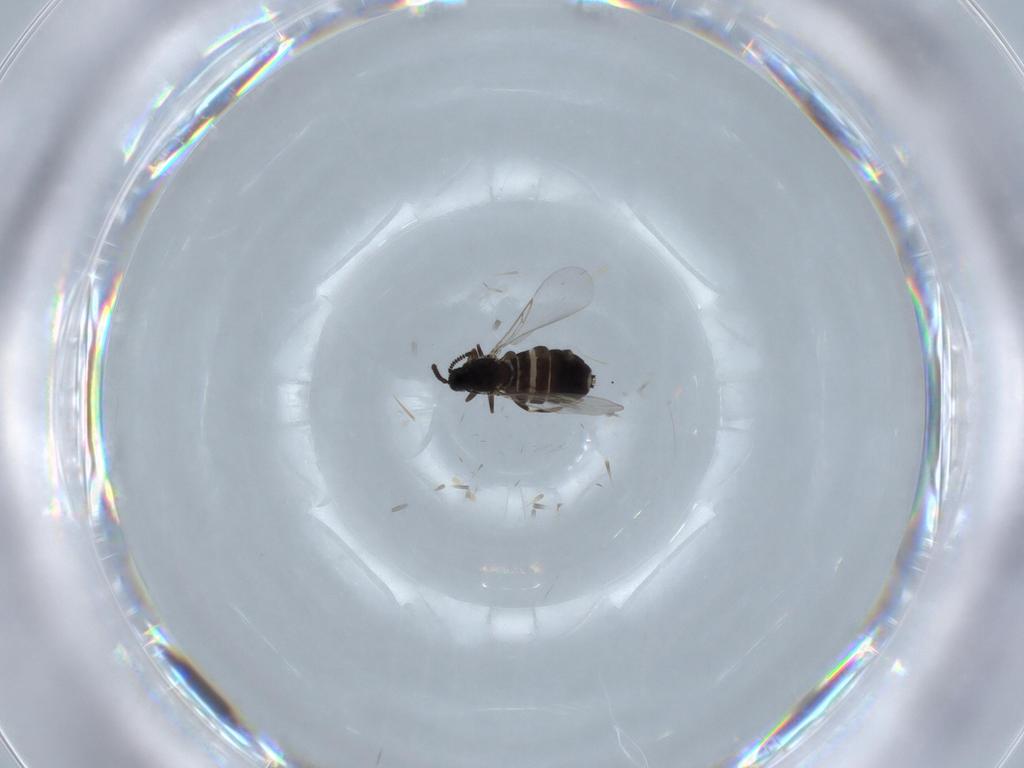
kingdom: Animalia
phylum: Arthropoda
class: Insecta
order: Diptera
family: Scatopsidae
